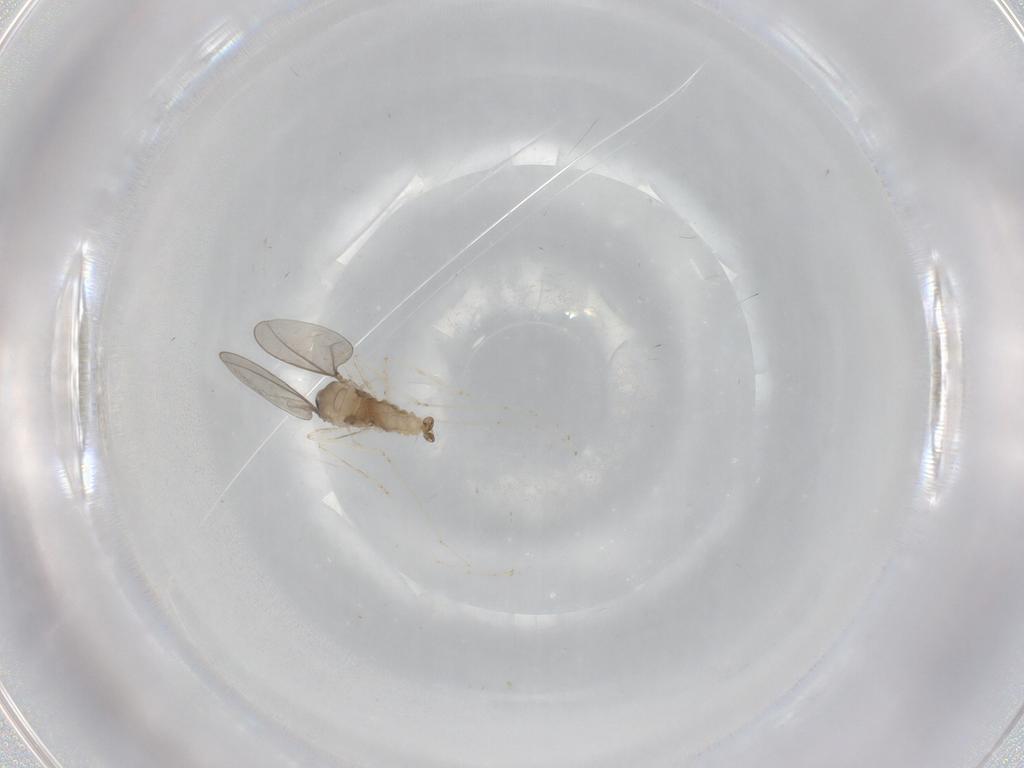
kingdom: Animalia
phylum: Arthropoda
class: Insecta
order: Diptera
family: Cecidomyiidae
